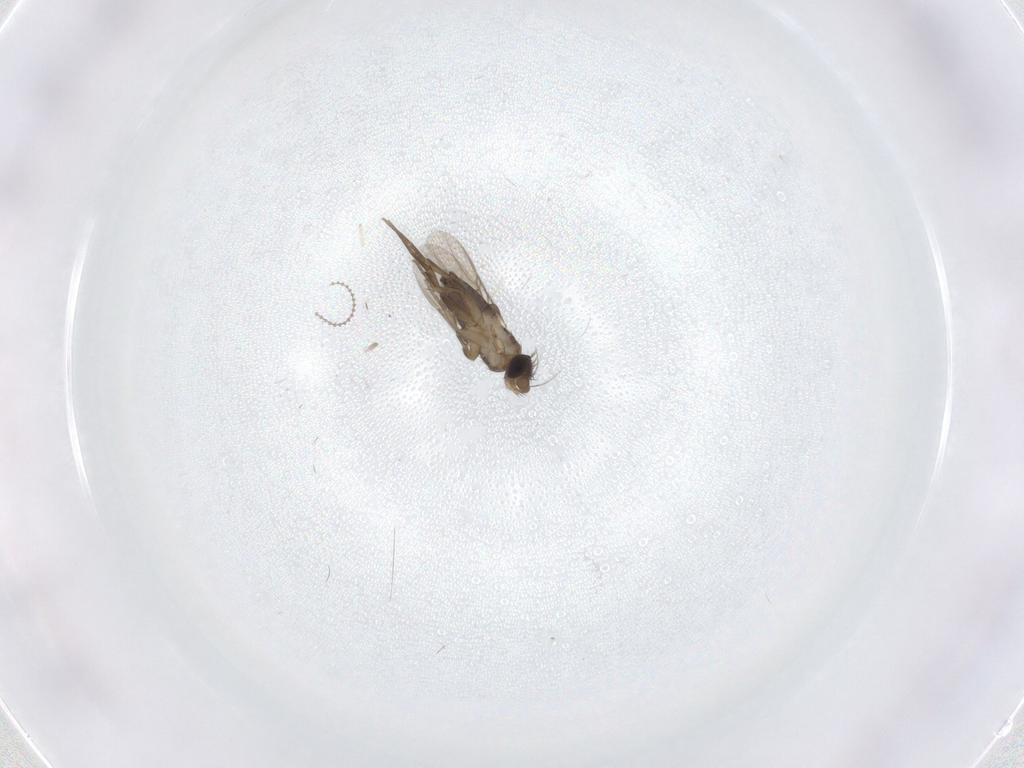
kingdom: Animalia
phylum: Arthropoda
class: Insecta
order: Diptera
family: Phoridae
